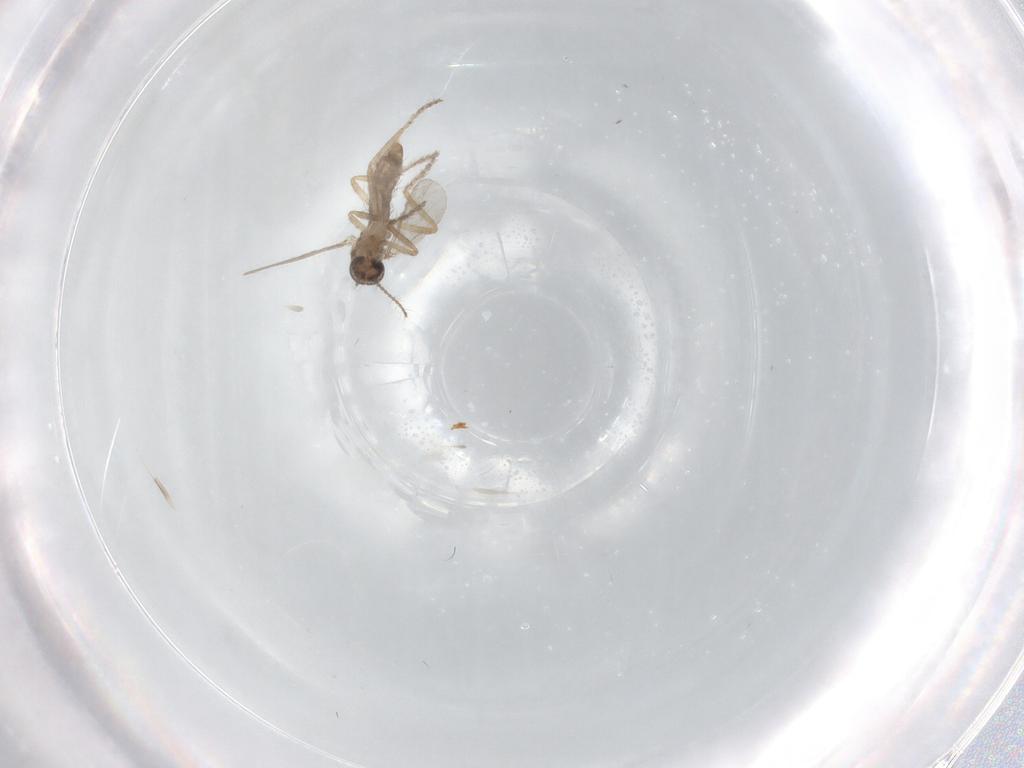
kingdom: Animalia
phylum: Arthropoda
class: Insecta
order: Diptera
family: Ceratopogonidae
